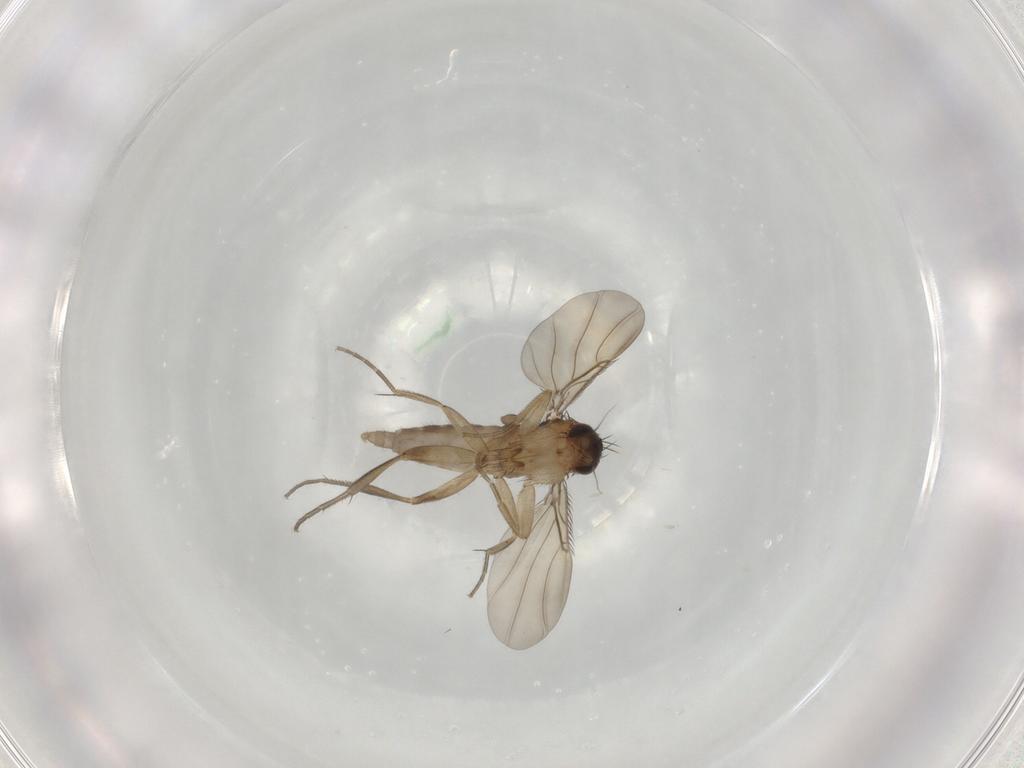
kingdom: Animalia
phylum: Arthropoda
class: Insecta
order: Diptera
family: Phoridae
